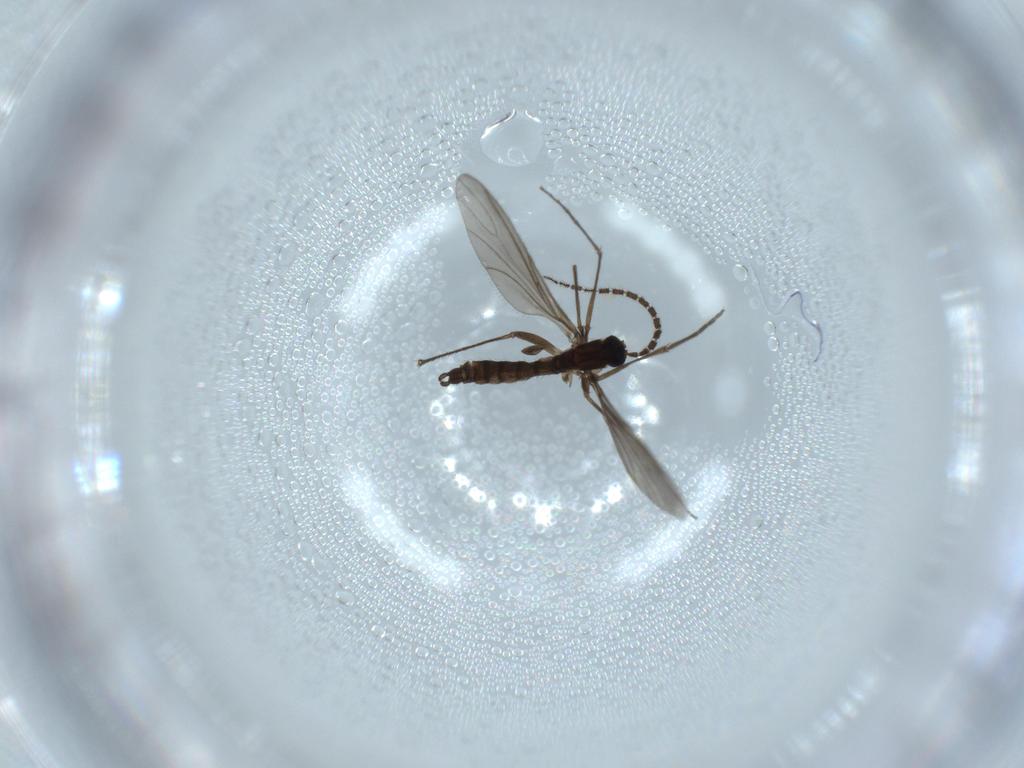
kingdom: Animalia
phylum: Arthropoda
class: Insecta
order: Diptera
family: Sciaridae
